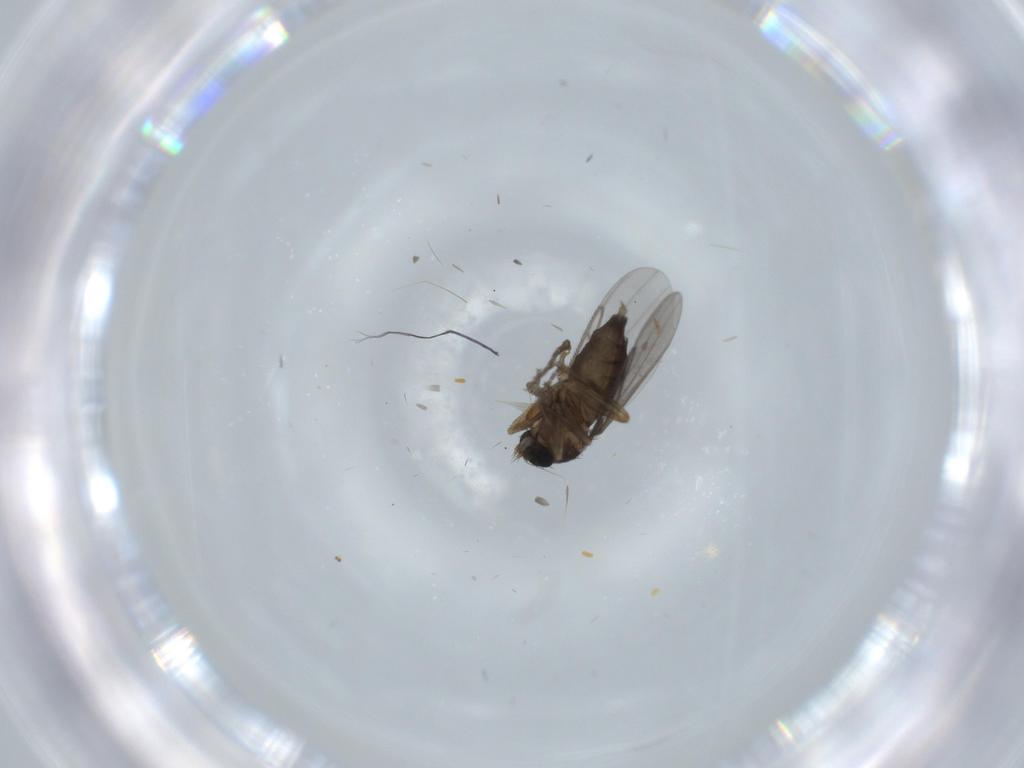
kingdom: Animalia
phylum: Arthropoda
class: Insecta
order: Diptera
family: Sciaridae
